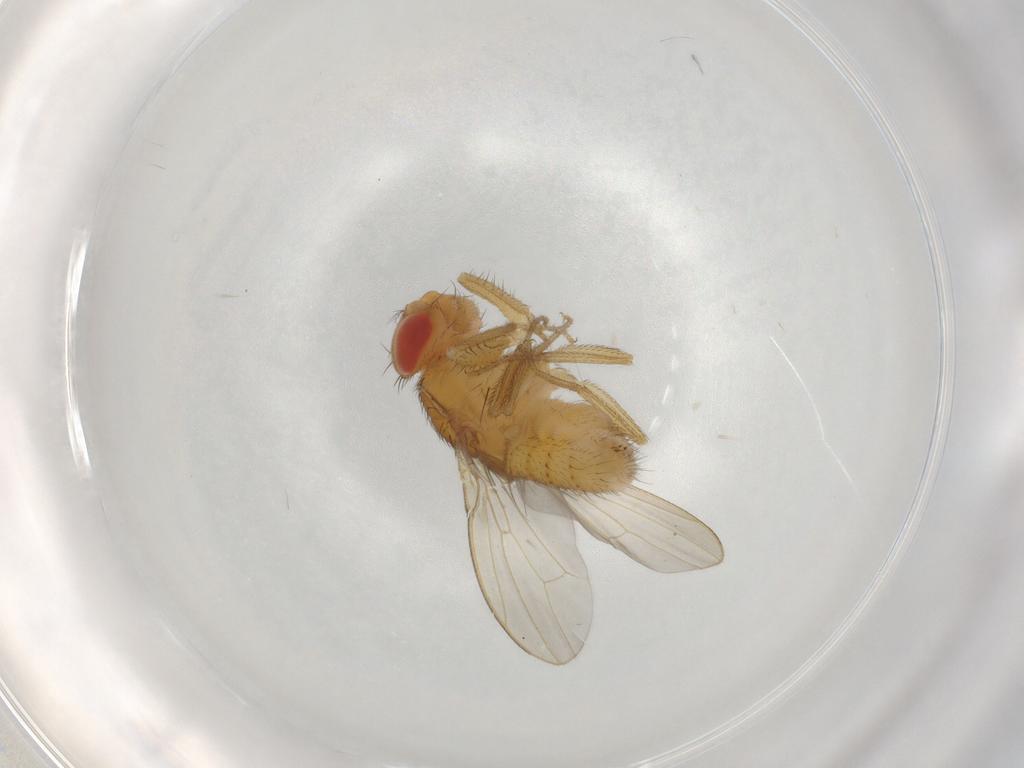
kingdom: Animalia
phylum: Arthropoda
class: Insecta
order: Diptera
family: Drosophilidae
